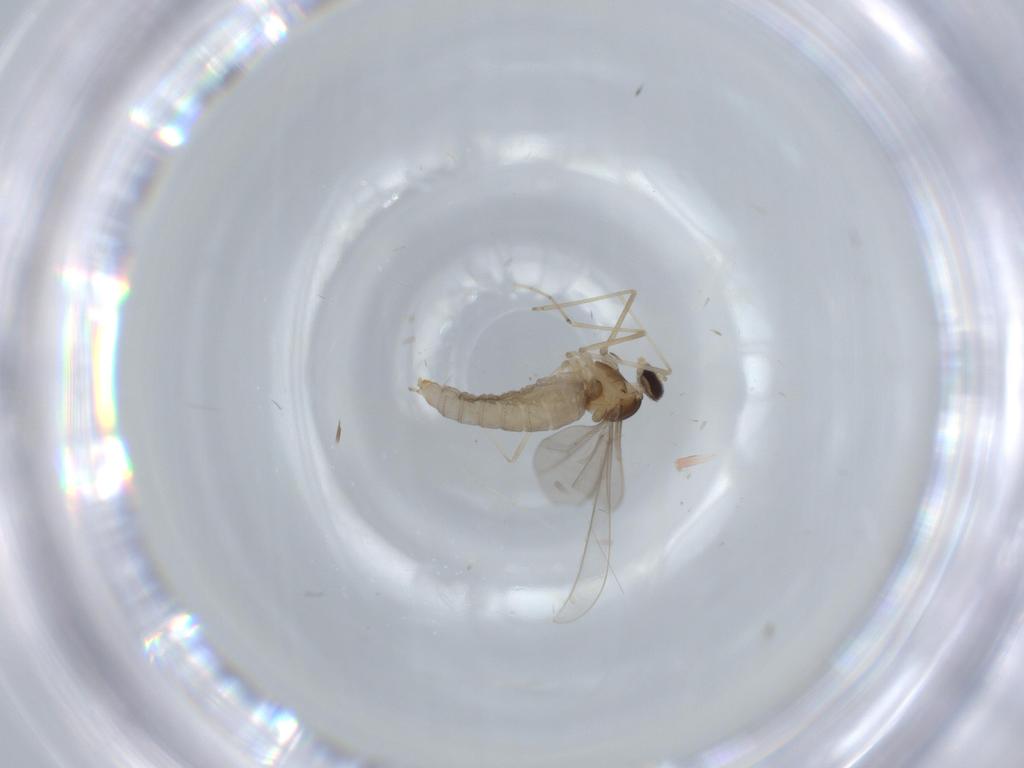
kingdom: Animalia
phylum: Arthropoda
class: Insecta
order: Diptera
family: Cecidomyiidae
